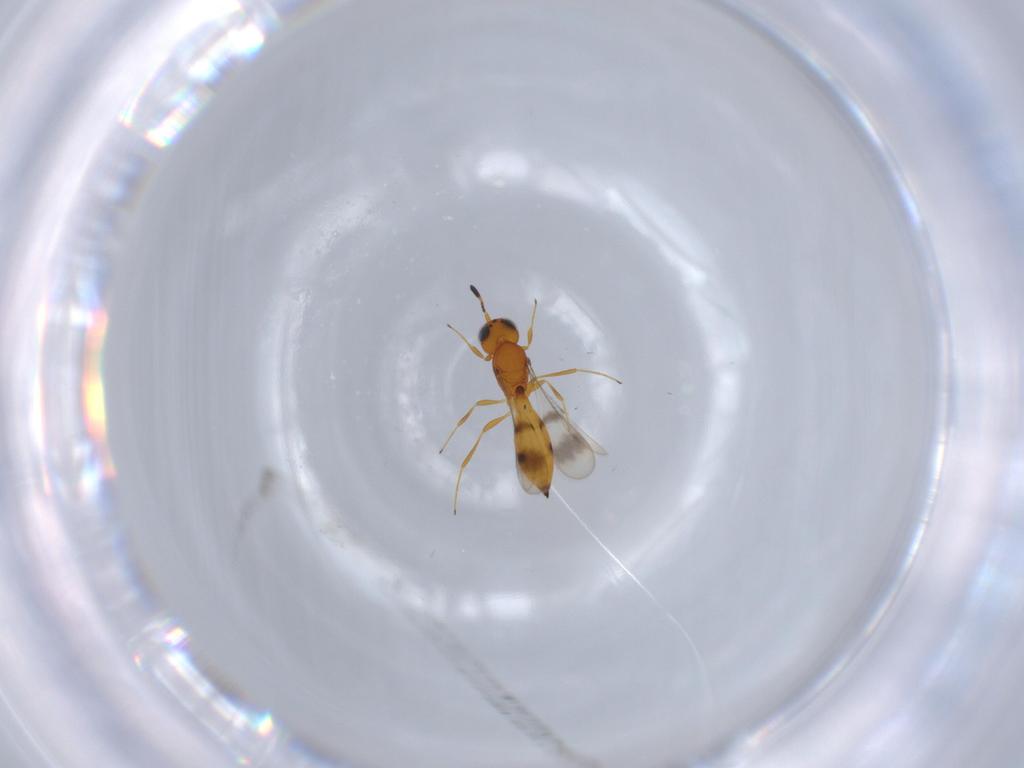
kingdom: Animalia
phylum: Arthropoda
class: Insecta
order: Hymenoptera
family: Scelionidae
